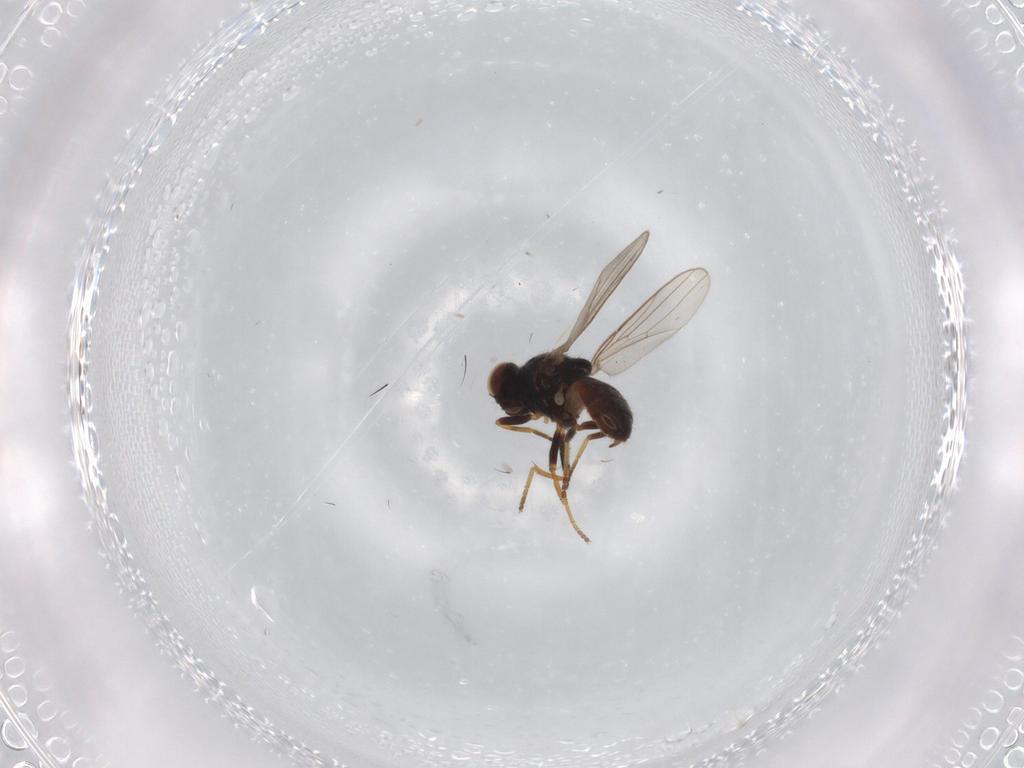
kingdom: Animalia
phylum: Arthropoda
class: Insecta
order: Diptera
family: Chloropidae
